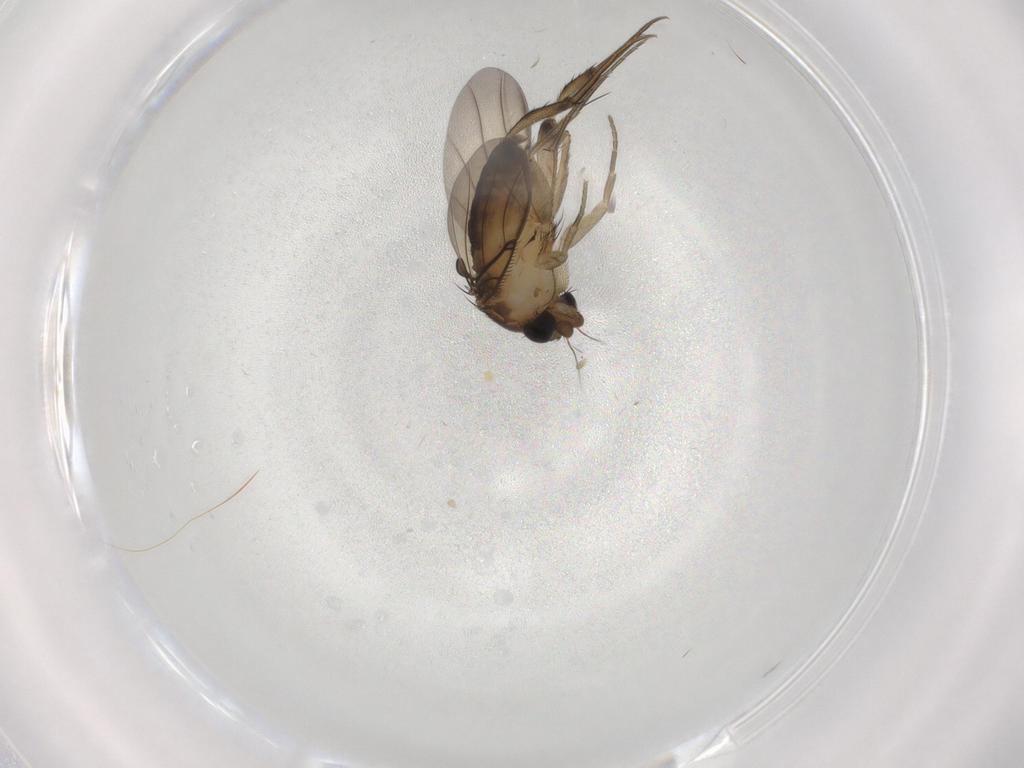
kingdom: Animalia
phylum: Arthropoda
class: Insecta
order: Diptera
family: Phoridae
